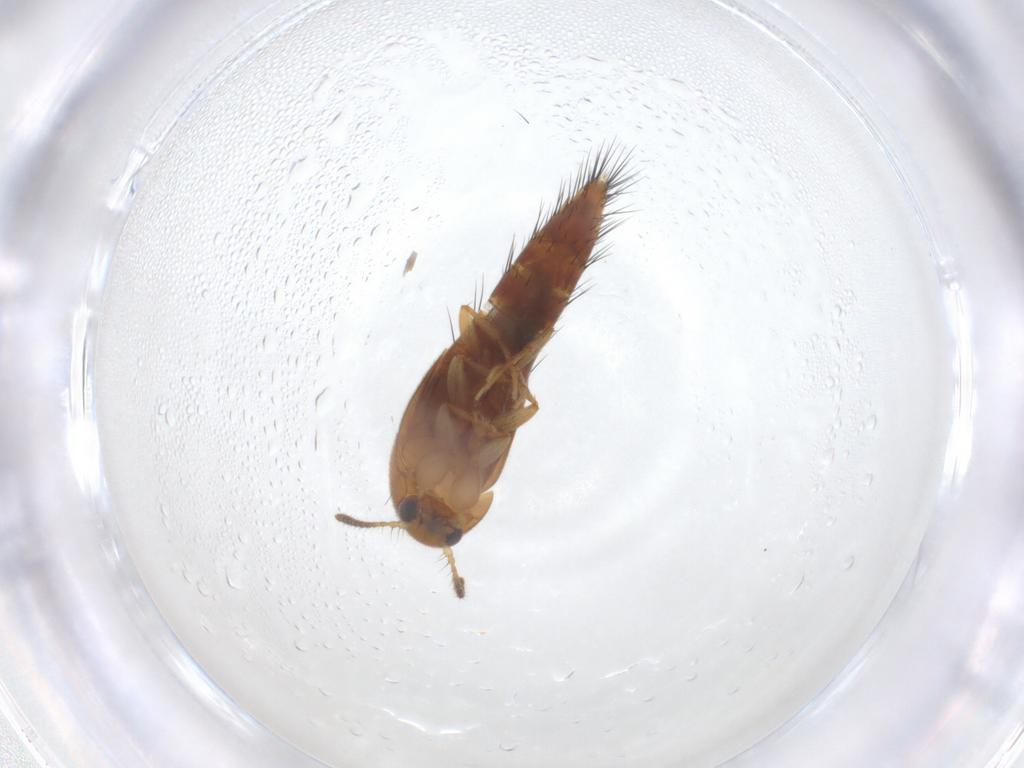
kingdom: Animalia
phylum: Arthropoda
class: Insecta
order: Coleoptera
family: Staphylinidae
